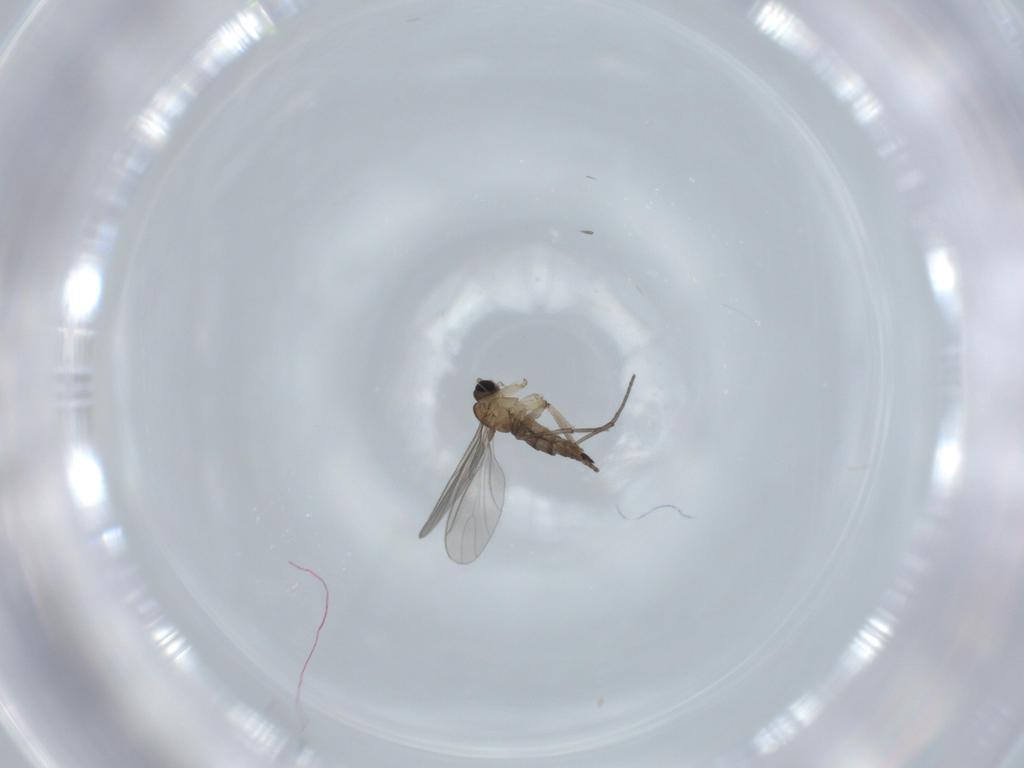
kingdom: Animalia
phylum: Arthropoda
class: Insecta
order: Diptera
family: Sciaridae
